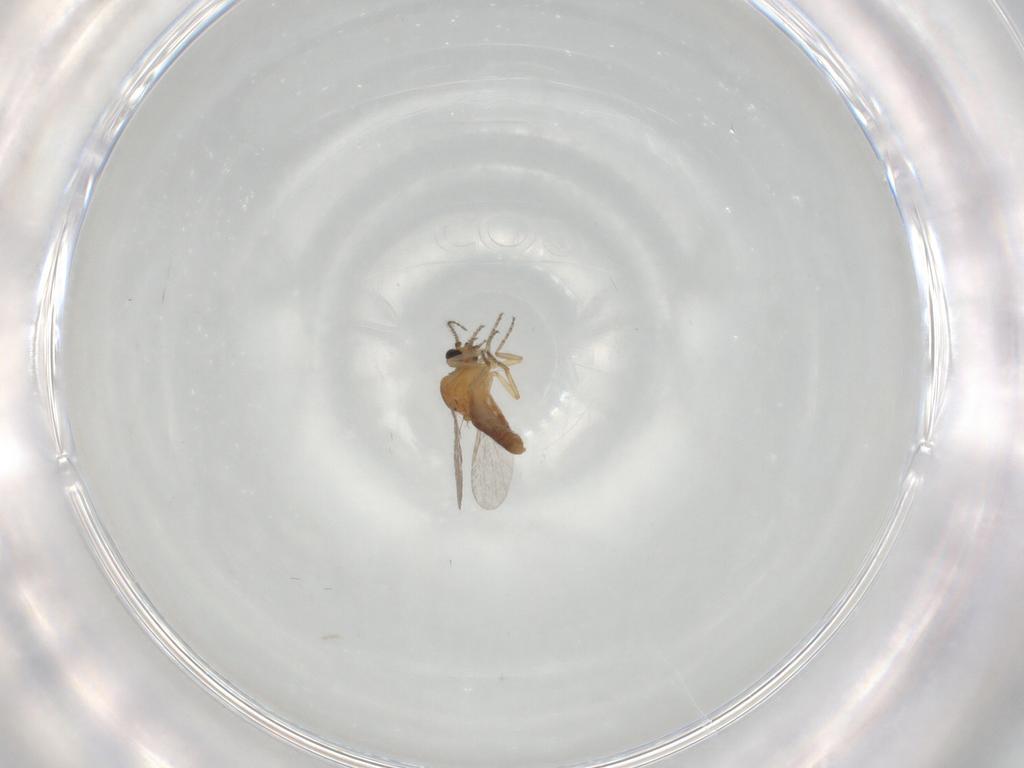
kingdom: Animalia
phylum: Arthropoda
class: Insecta
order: Diptera
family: Ceratopogonidae
